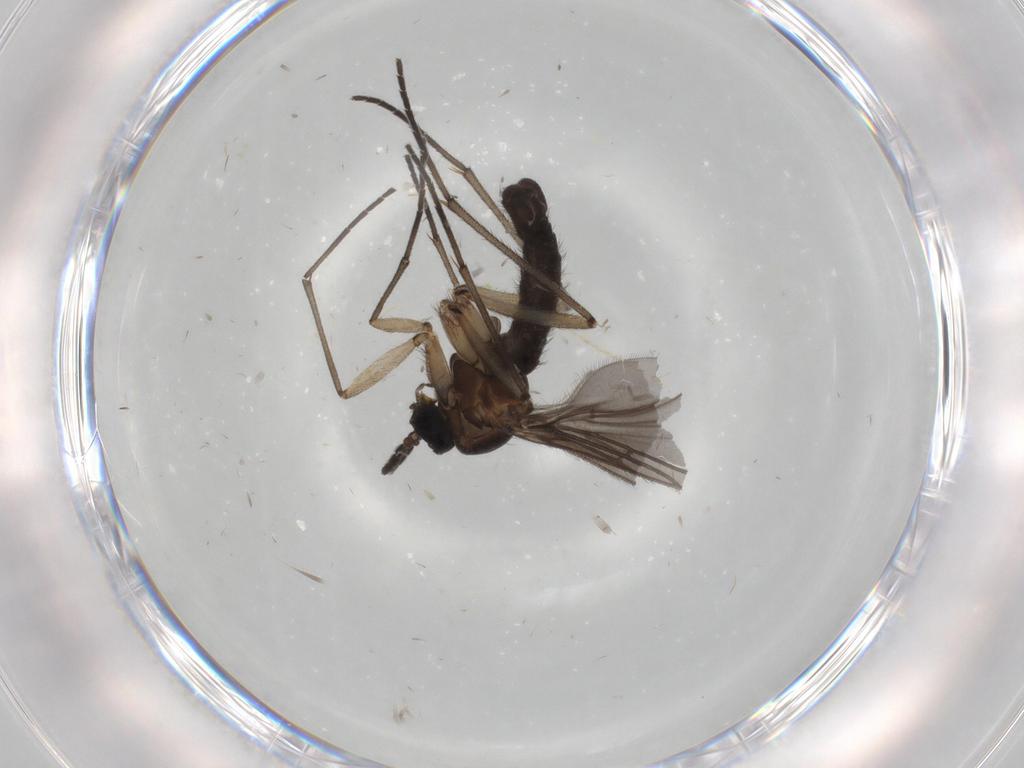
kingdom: Animalia
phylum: Arthropoda
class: Insecta
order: Diptera
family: Sciaridae
